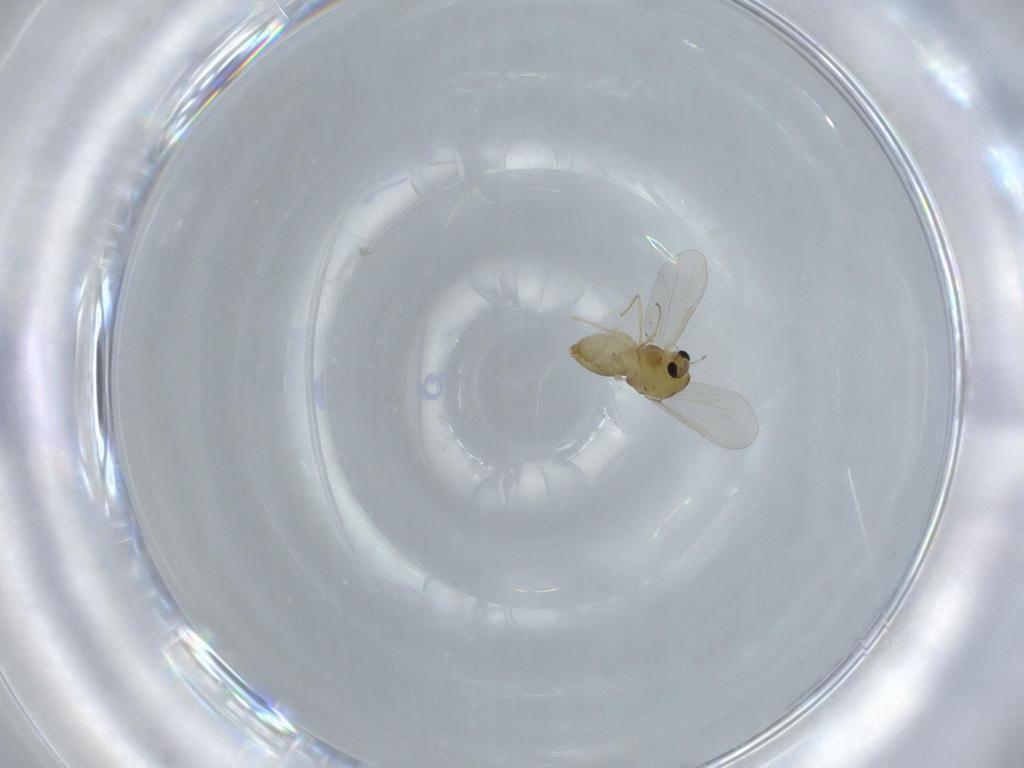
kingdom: Animalia
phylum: Arthropoda
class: Insecta
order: Diptera
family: Chironomidae
